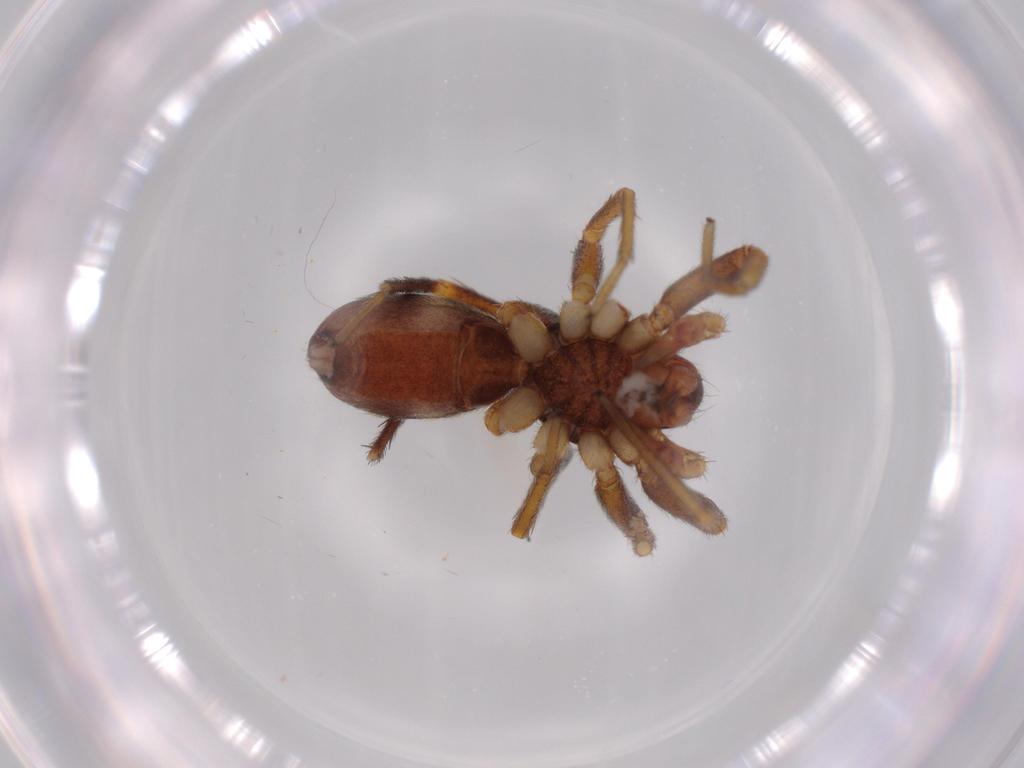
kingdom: Animalia
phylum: Arthropoda
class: Arachnida
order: Araneae
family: Corinnidae
